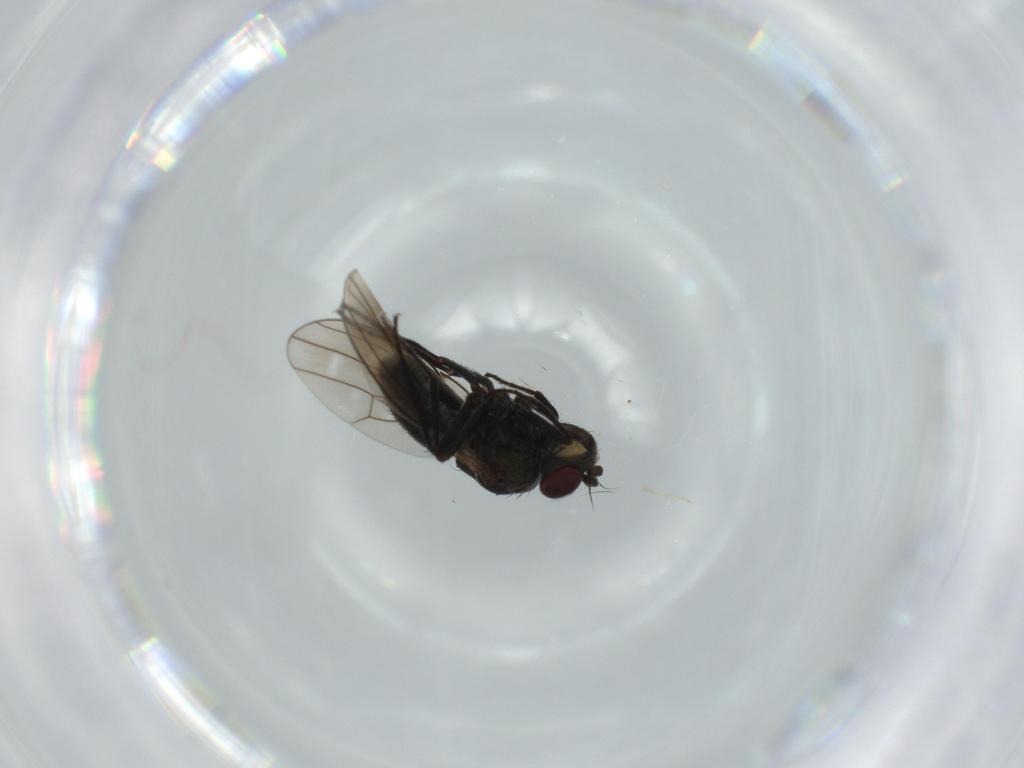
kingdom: Animalia
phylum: Arthropoda
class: Insecta
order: Diptera
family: Ephydridae
